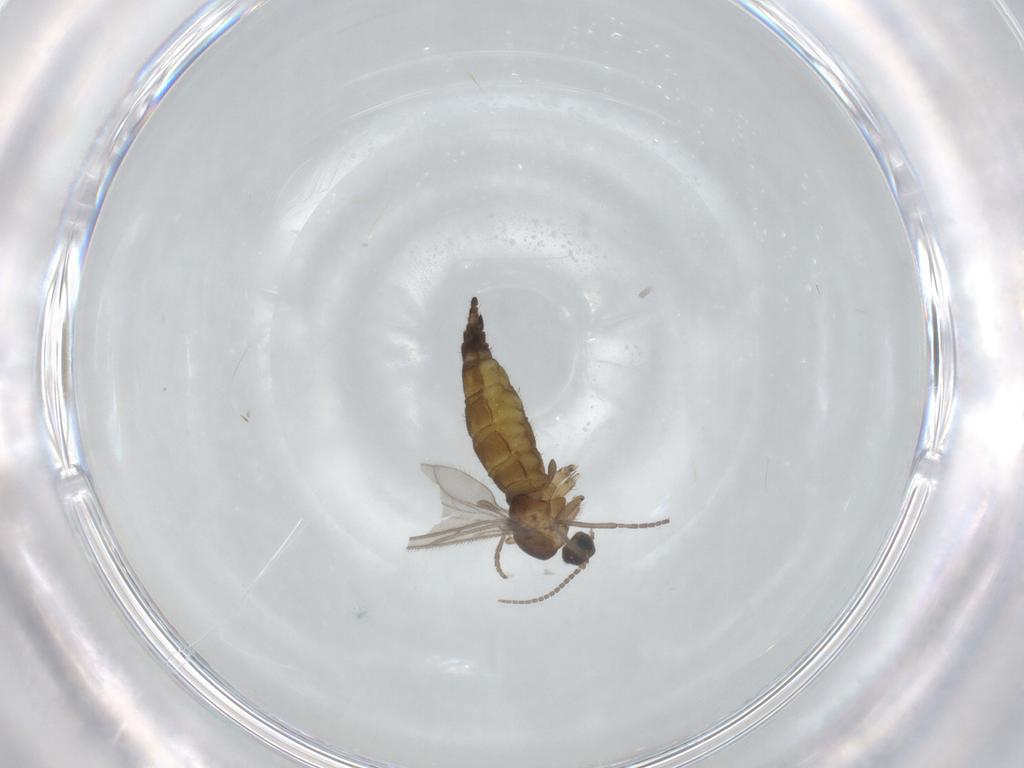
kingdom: Animalia
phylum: Arthropoda
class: Insecta
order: Diptera
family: Sciaridae
